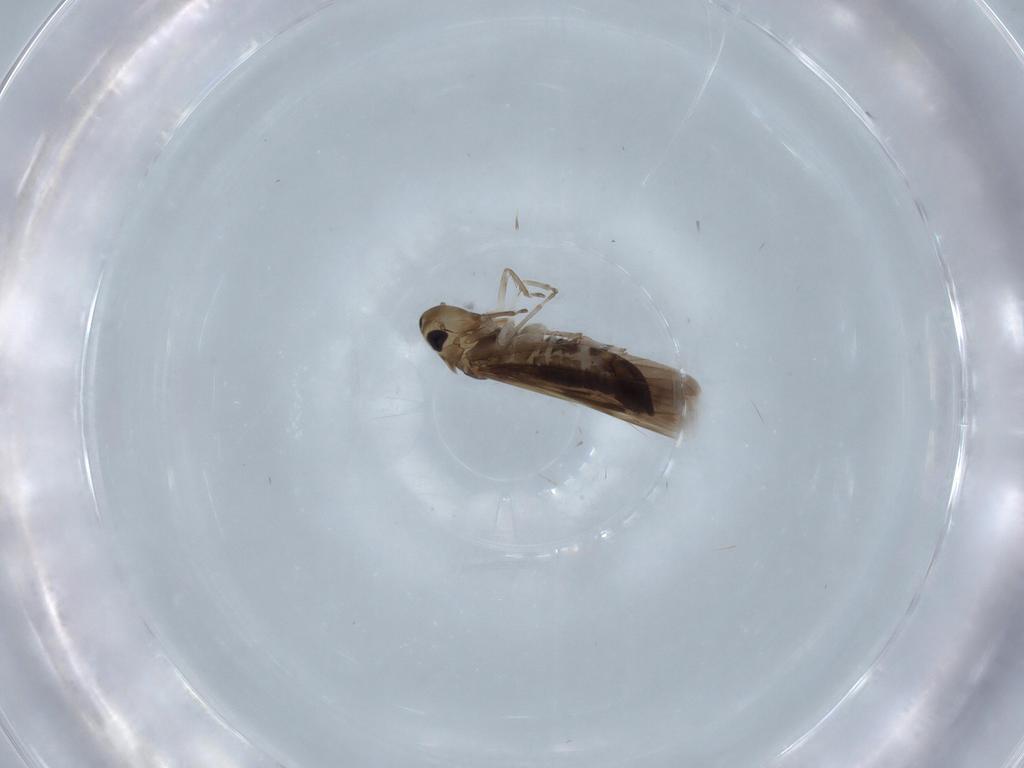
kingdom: Animalia
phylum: Arthropoda
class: Insecta
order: Hemiptera
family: Cicadellidae
